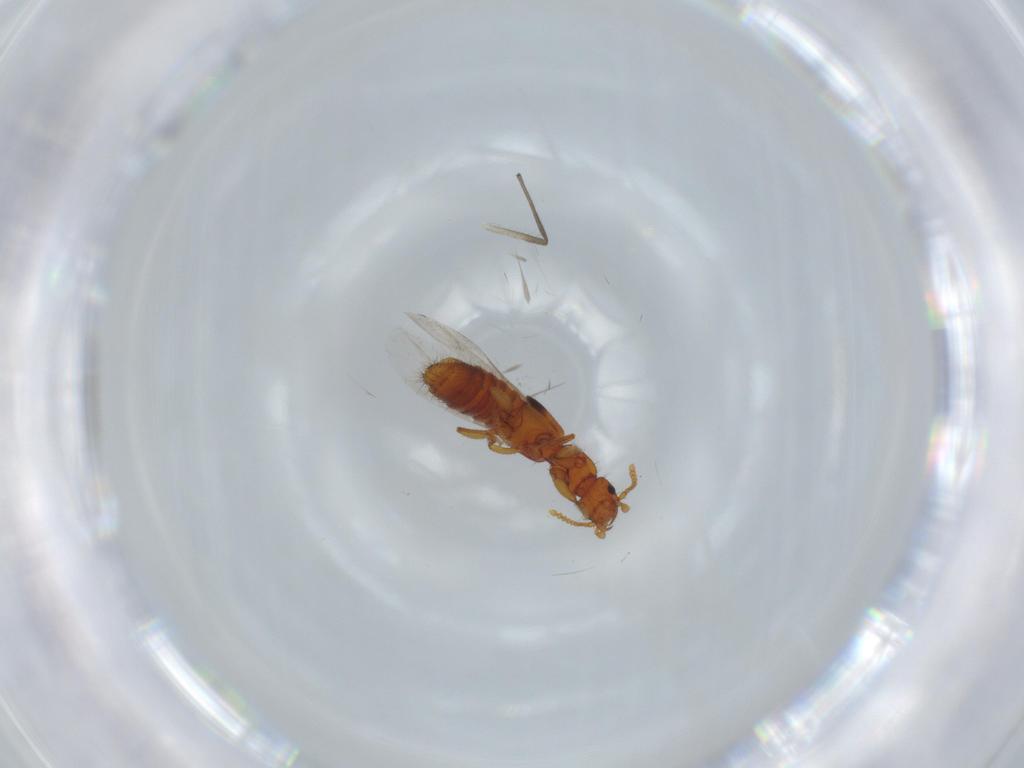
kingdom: Animalia
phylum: Arthropoda
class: Insecta
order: Coleoptera
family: Staphylinidae
